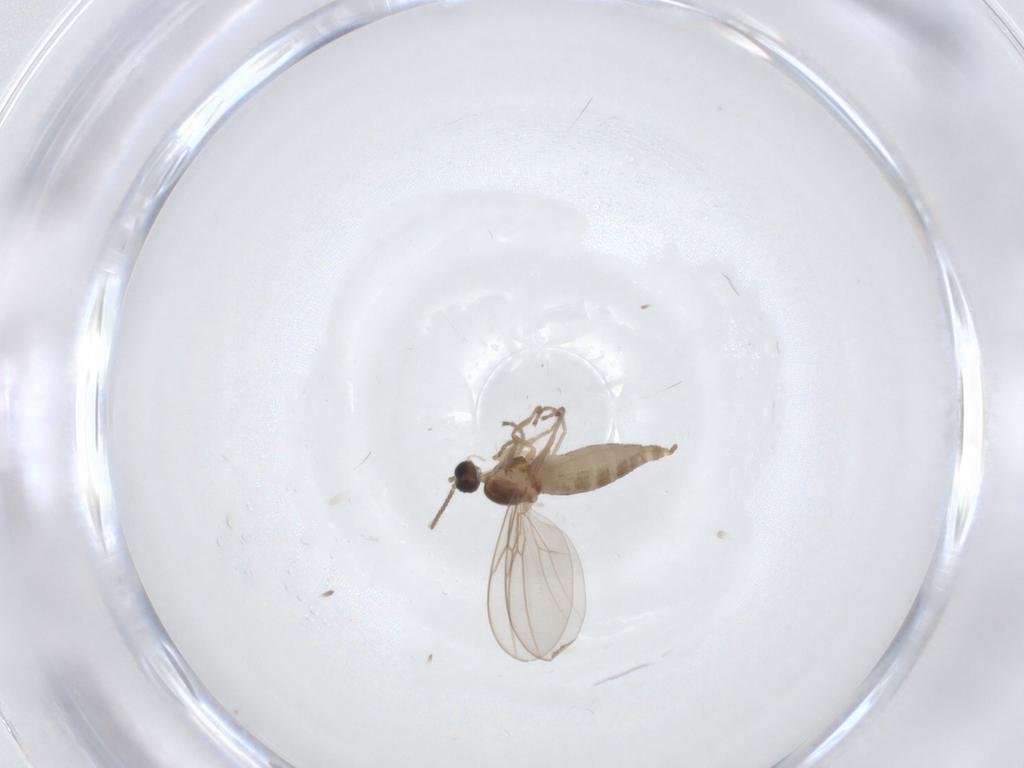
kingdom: Animalia
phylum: Arthropoda
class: Insecta
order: Diptera
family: Cecidomyiidae
